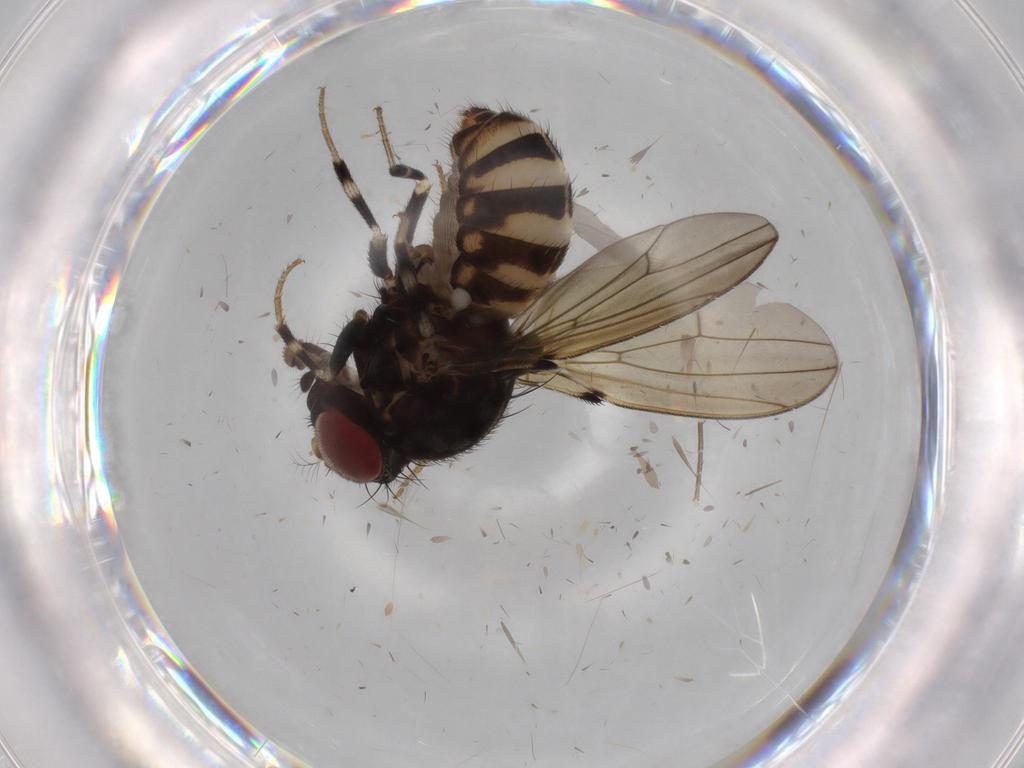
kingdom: Animalia
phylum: Arthropoda
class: Insecta
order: Diptera
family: Drosophilidae
